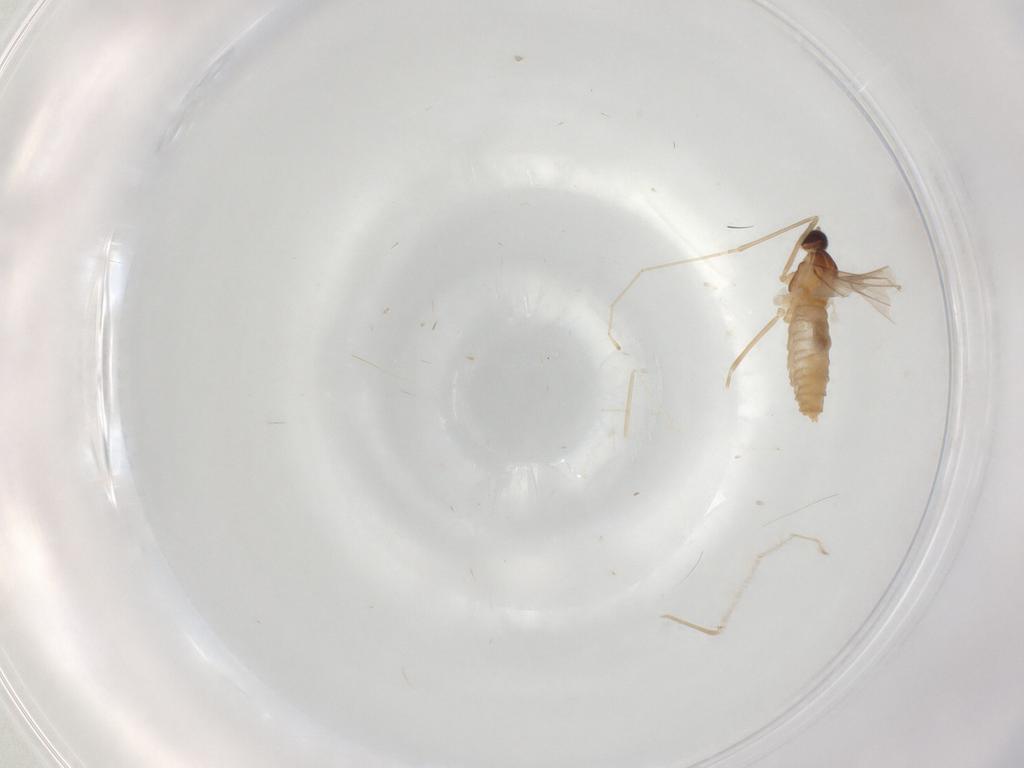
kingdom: Animalia
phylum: Arthropoda
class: Insecta
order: Diptera
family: Cecidomyiidae
